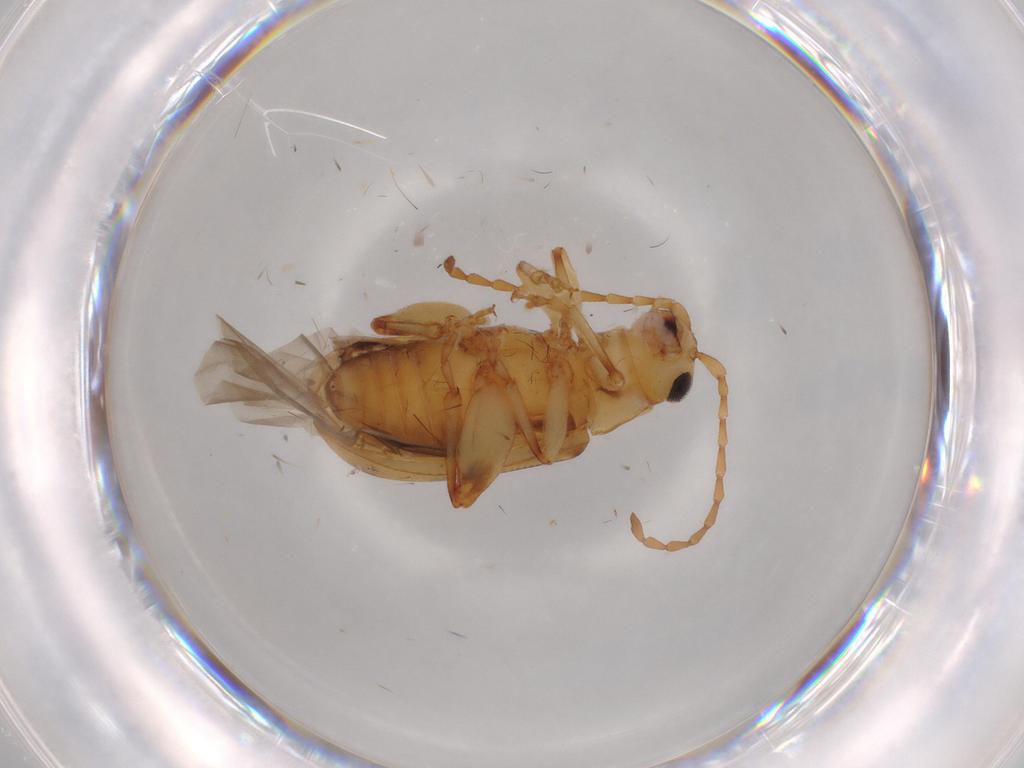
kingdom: Animalia
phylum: Arthropoda
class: Insecta
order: Coleoptera
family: Chrysomelidae
